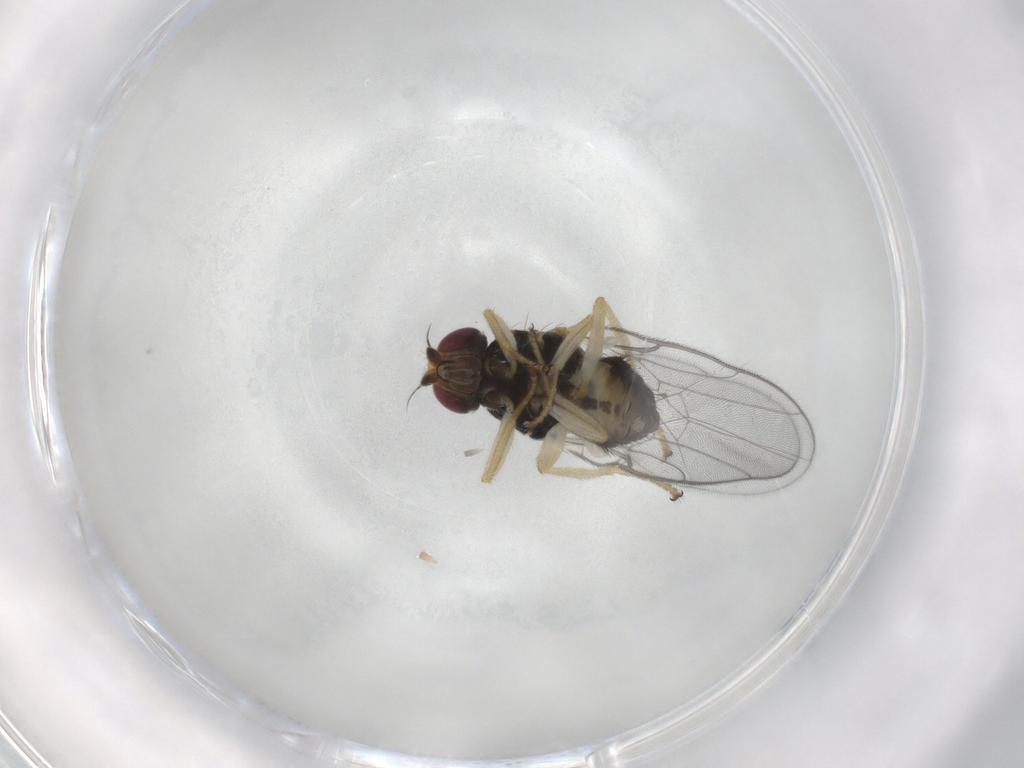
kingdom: Animalia
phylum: Arthropoda
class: Insecta
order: Diptera
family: Chloropidae
